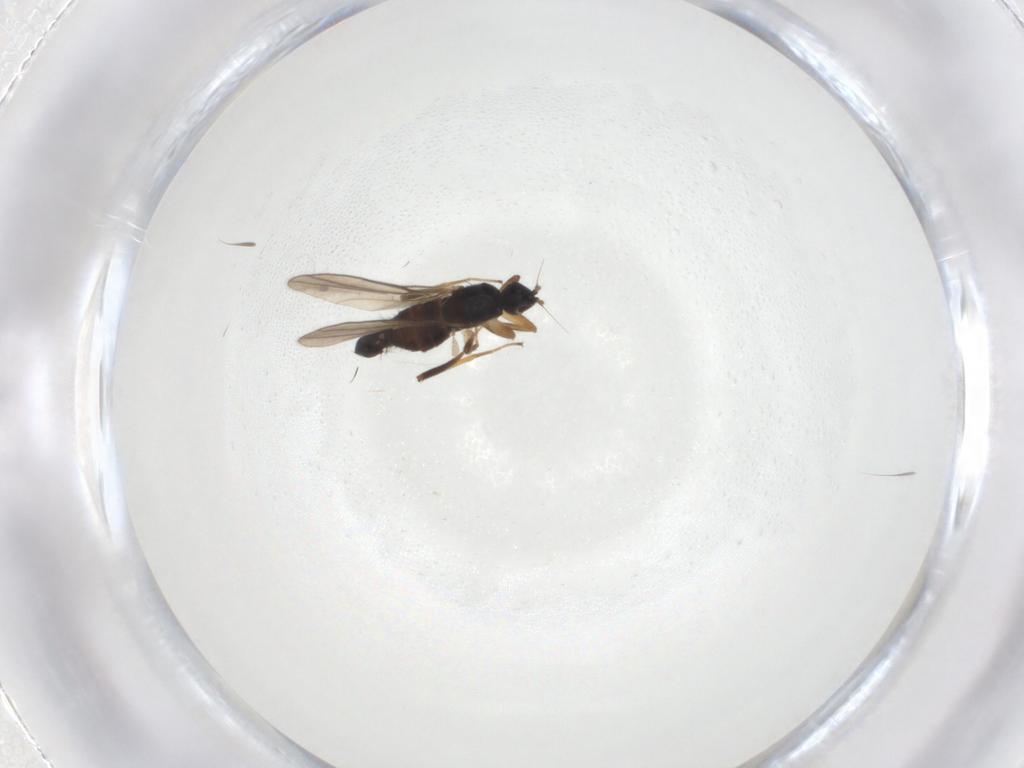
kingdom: Animalia
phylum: Arthropoda
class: Insecta
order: Diptera
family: Hybotidae
